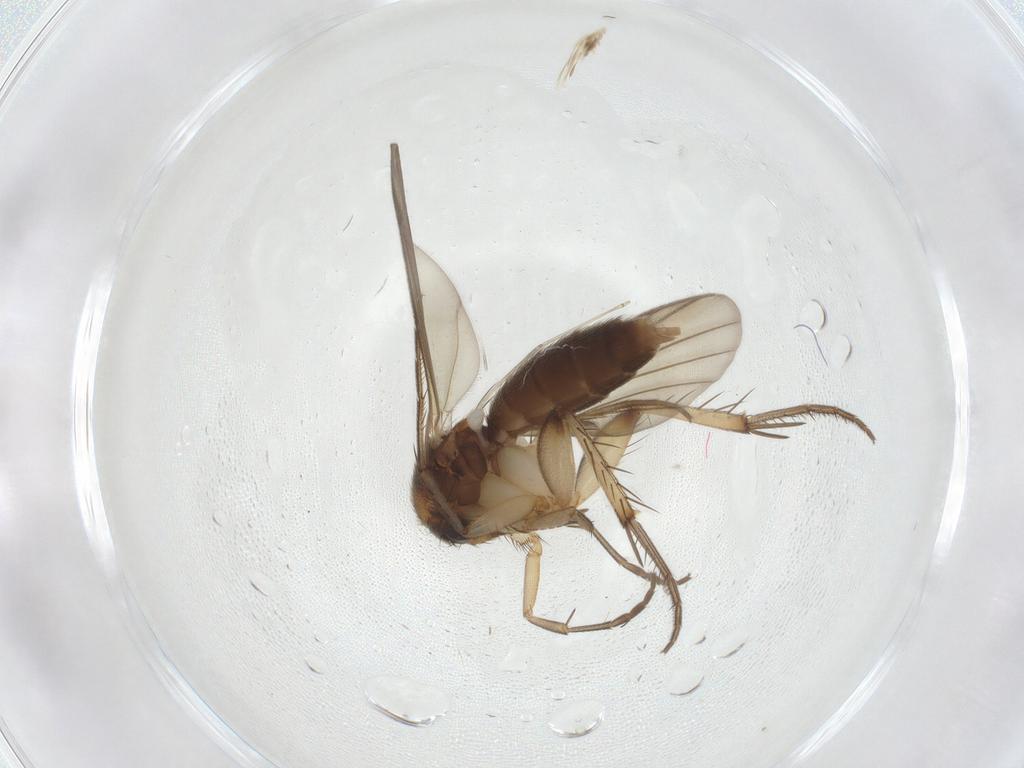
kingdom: Animalia
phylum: Arthropoda
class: Insecta
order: Diptera
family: Mycetophilidae
